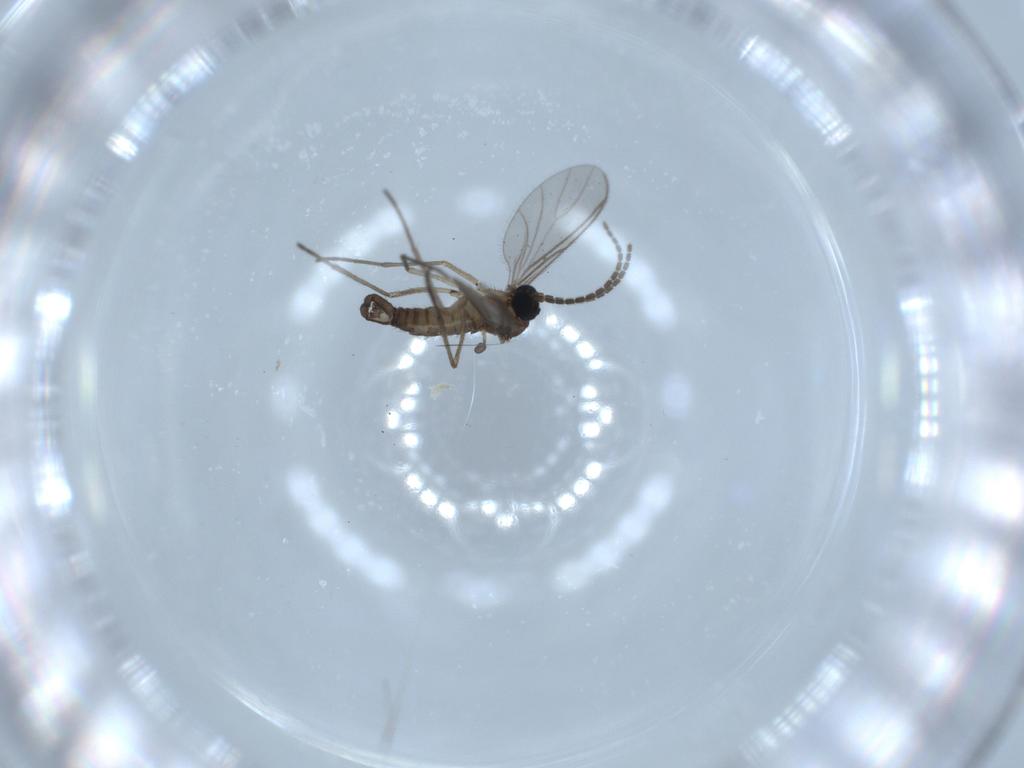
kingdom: Animalia
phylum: Arthropoda
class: Insecta
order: Diptera
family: Sciaridae
